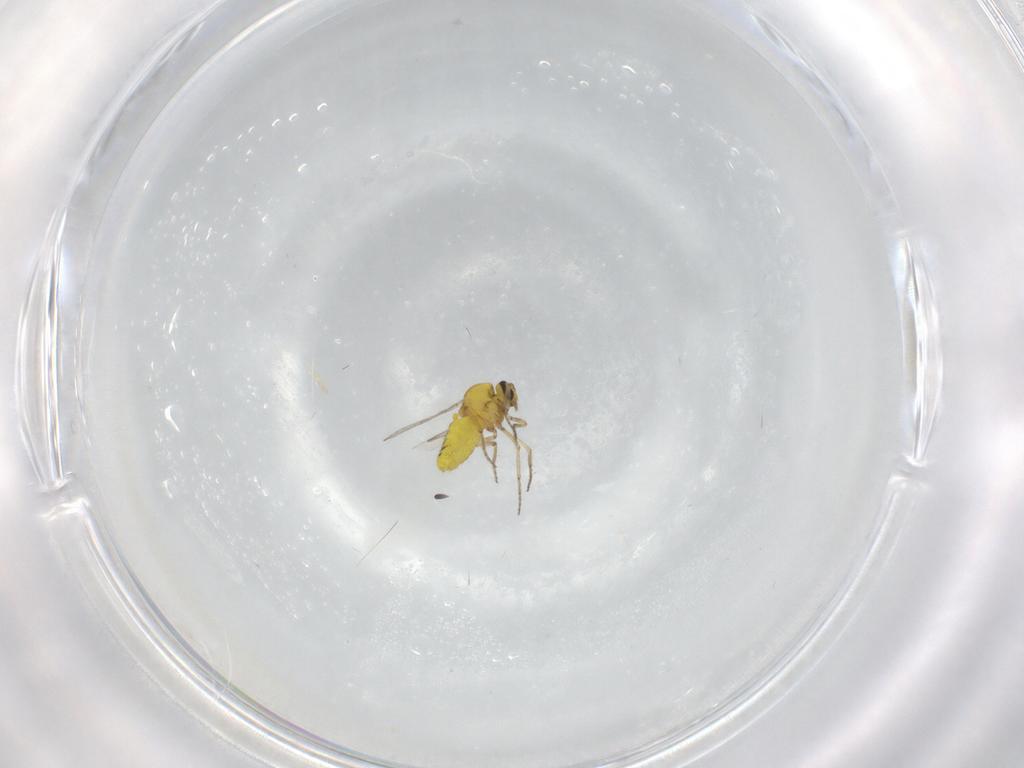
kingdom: Animalia
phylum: Arthropoda
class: Insecta
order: Diptera
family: Ceratopogonidae
